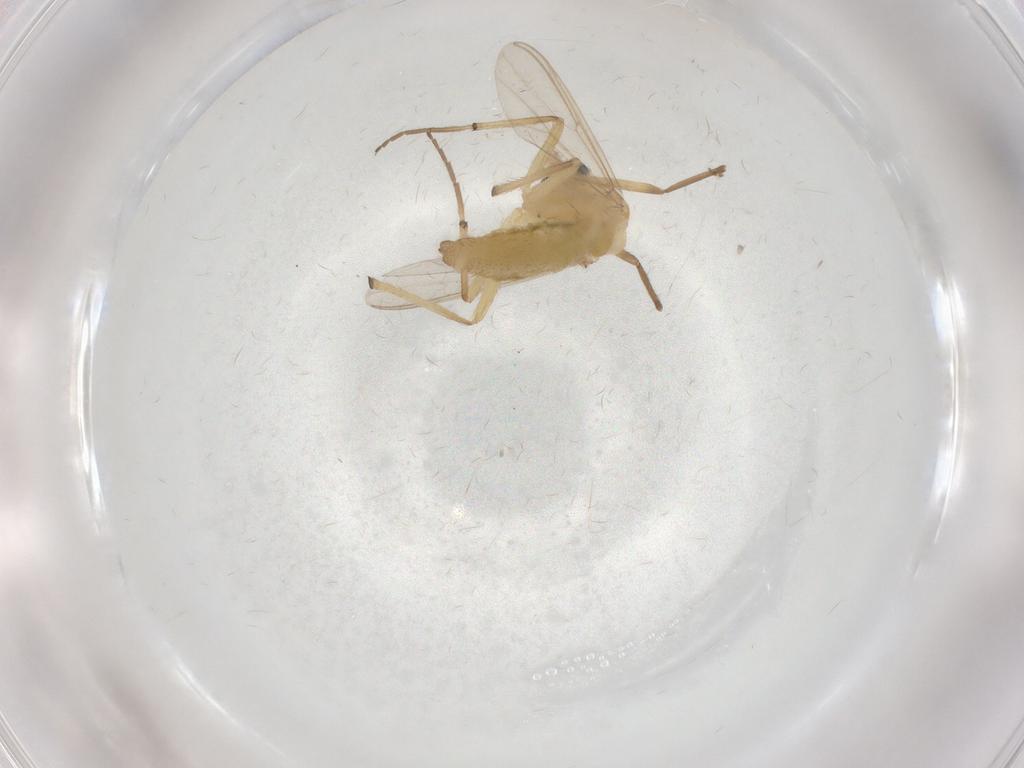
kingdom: Animalia
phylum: Arthropoda
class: Insecta
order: Diptera
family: Chironomidae
